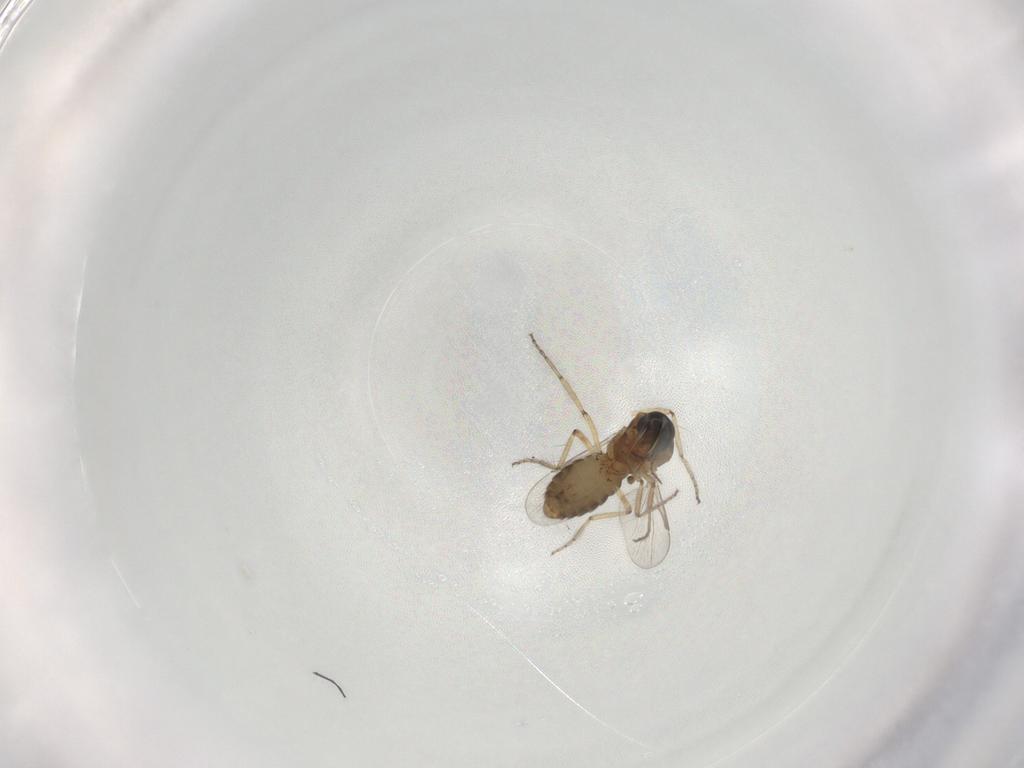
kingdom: Animalia
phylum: Arthropoda
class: Insecta
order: Diptera
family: Ceratopogonidae
